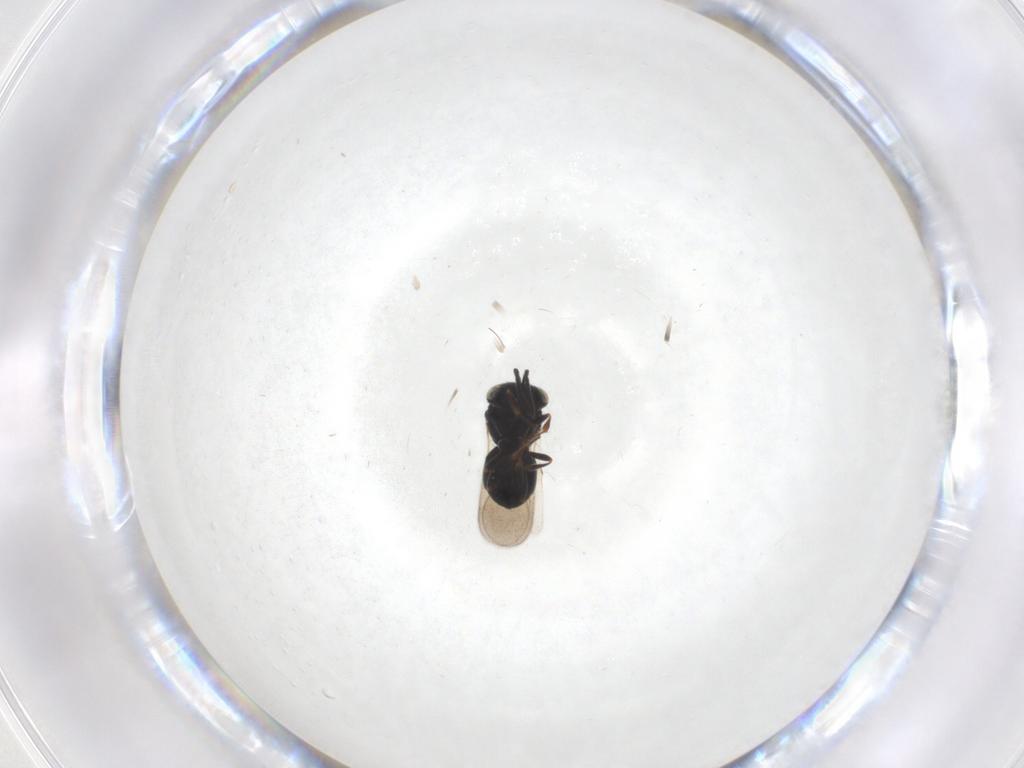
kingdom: Animalia
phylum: Arthropoda
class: Insecta
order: Hymenoptera
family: Scelionidae
